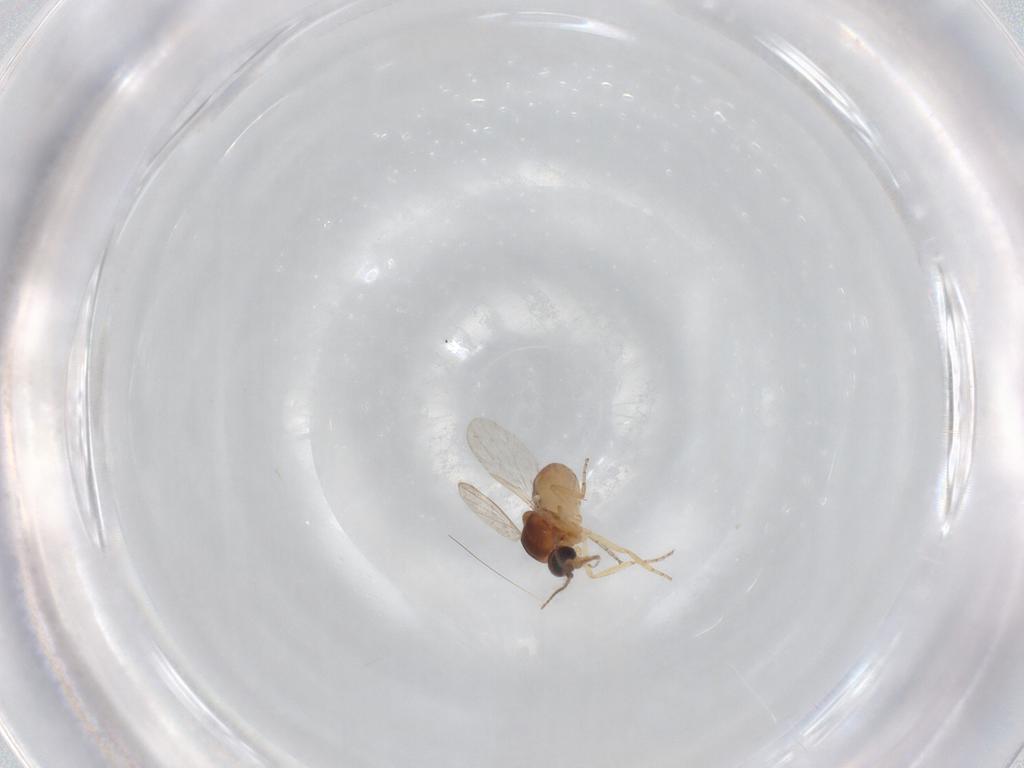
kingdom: Animalia
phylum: Arthropoda
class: Insecta
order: Diptera
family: Ceratopogonidae
